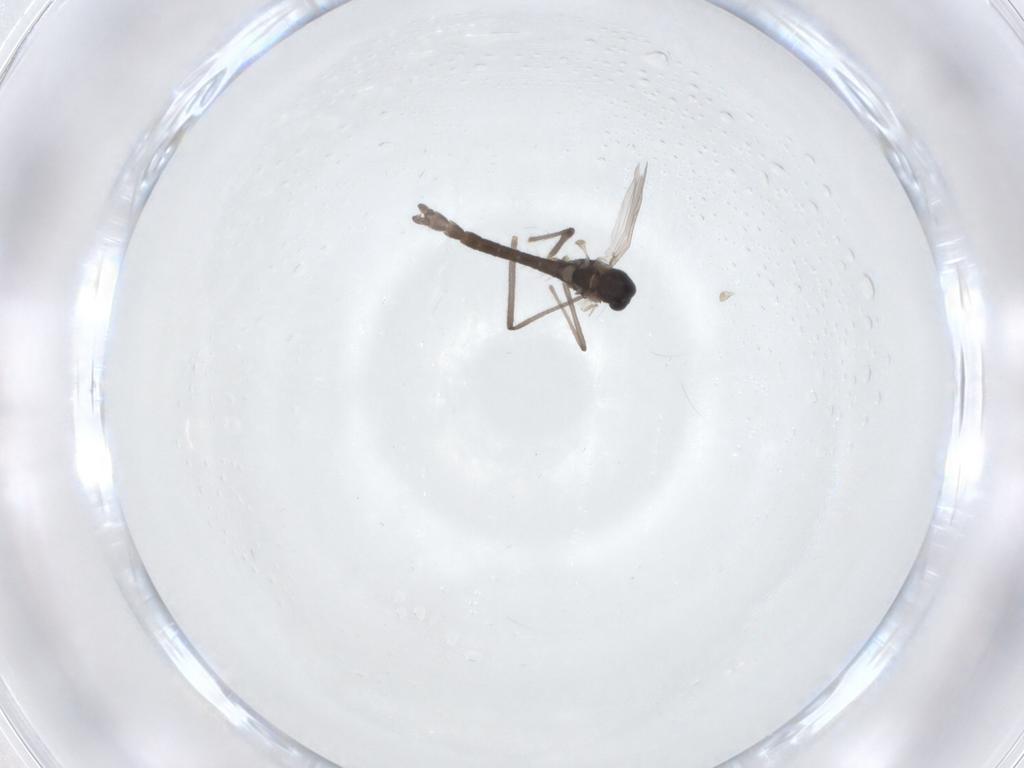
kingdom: Animalia
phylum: Arthropoda
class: Insecta
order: Diptera
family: Chironomidae
